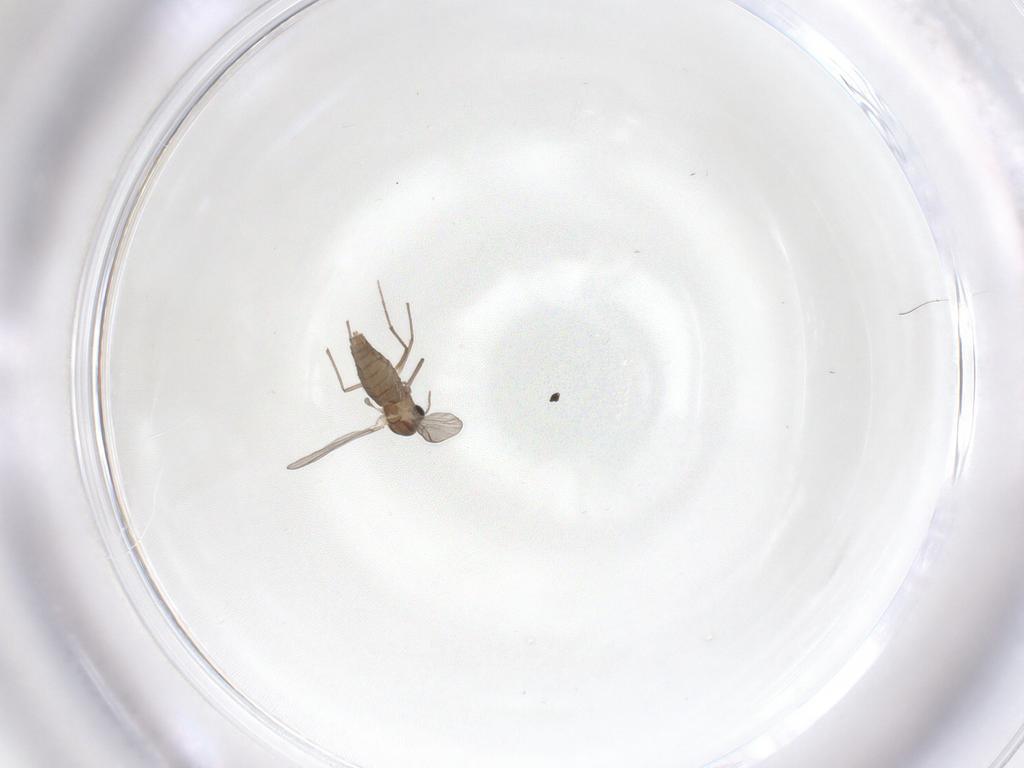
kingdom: Animalia
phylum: Arthropoda
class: Insecta
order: Diptera
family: Chironomidae
